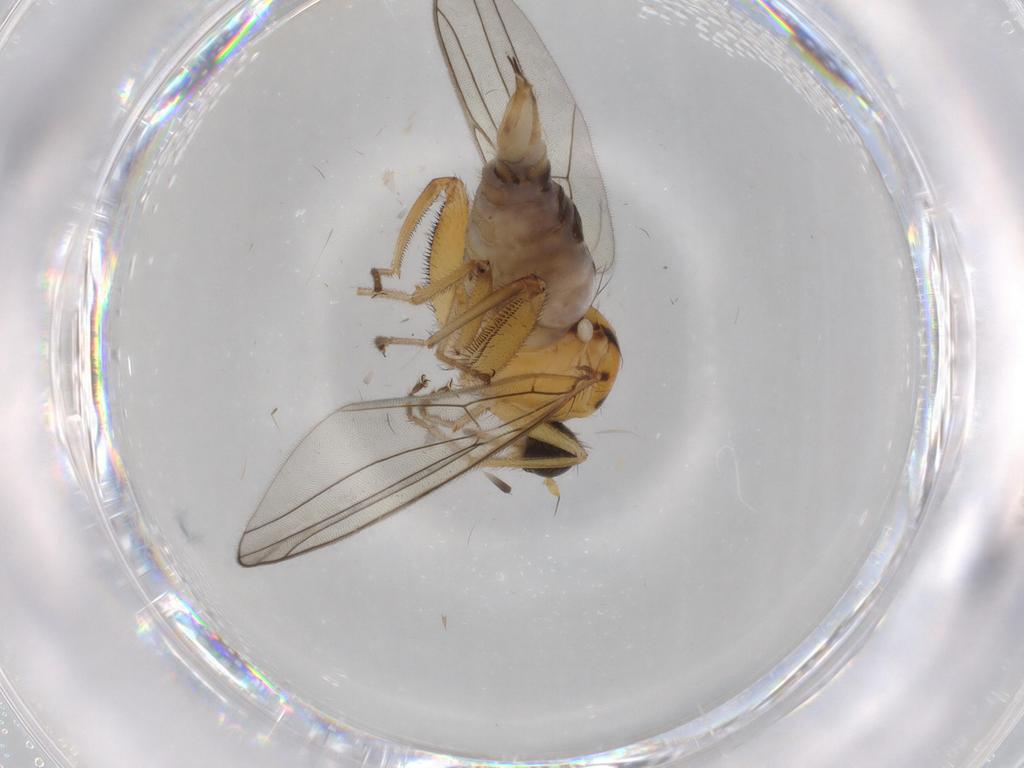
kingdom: Animalia
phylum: Arthropoda
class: Insecta
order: Diptera
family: Hybotidae
